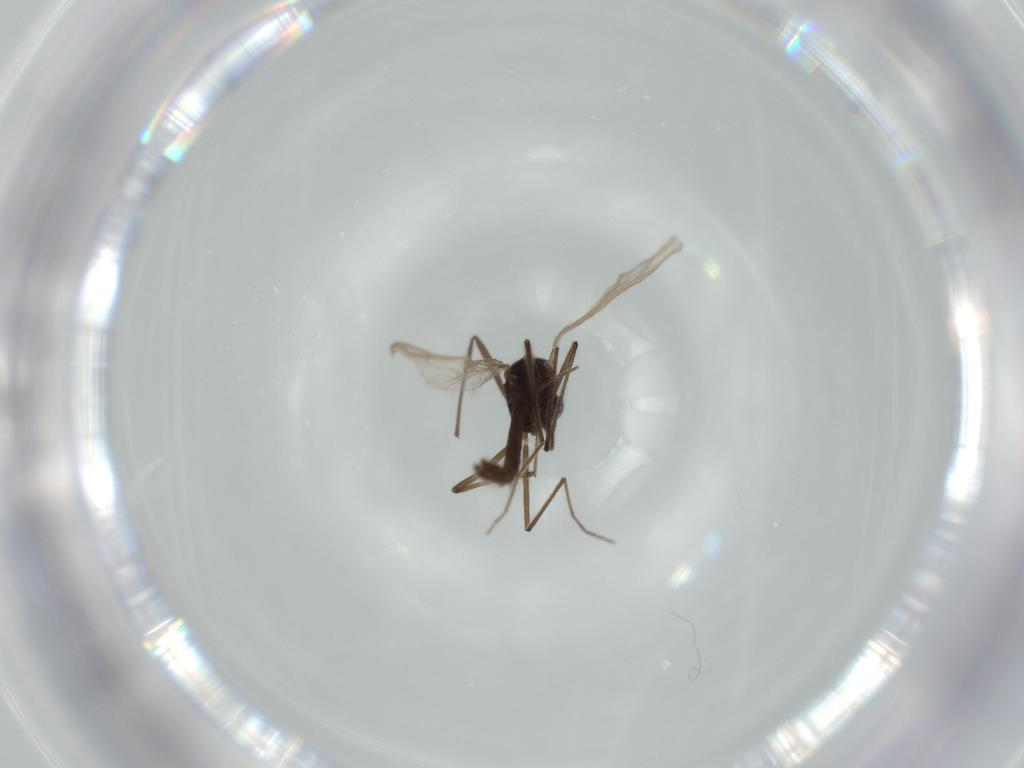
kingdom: Animalia
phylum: Arthropoda
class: Insecta
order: Diptera
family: Chironomidae
